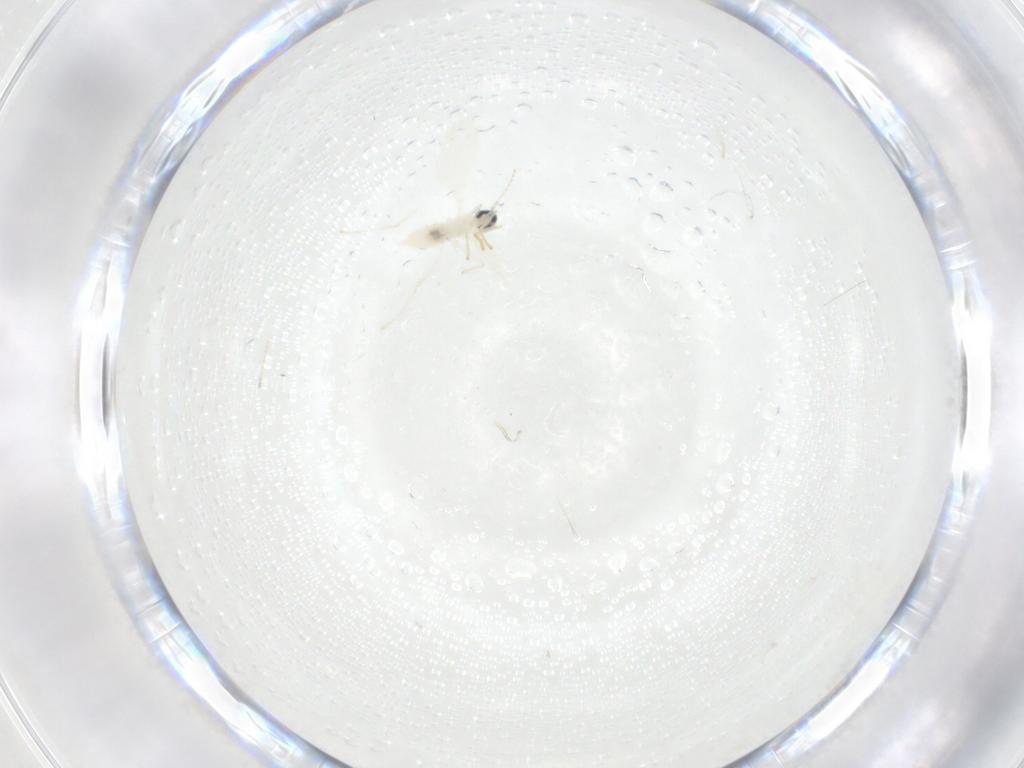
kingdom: Animalia
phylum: Arthropoda
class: Insecta
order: Diptera
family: Cecidomyiidae
